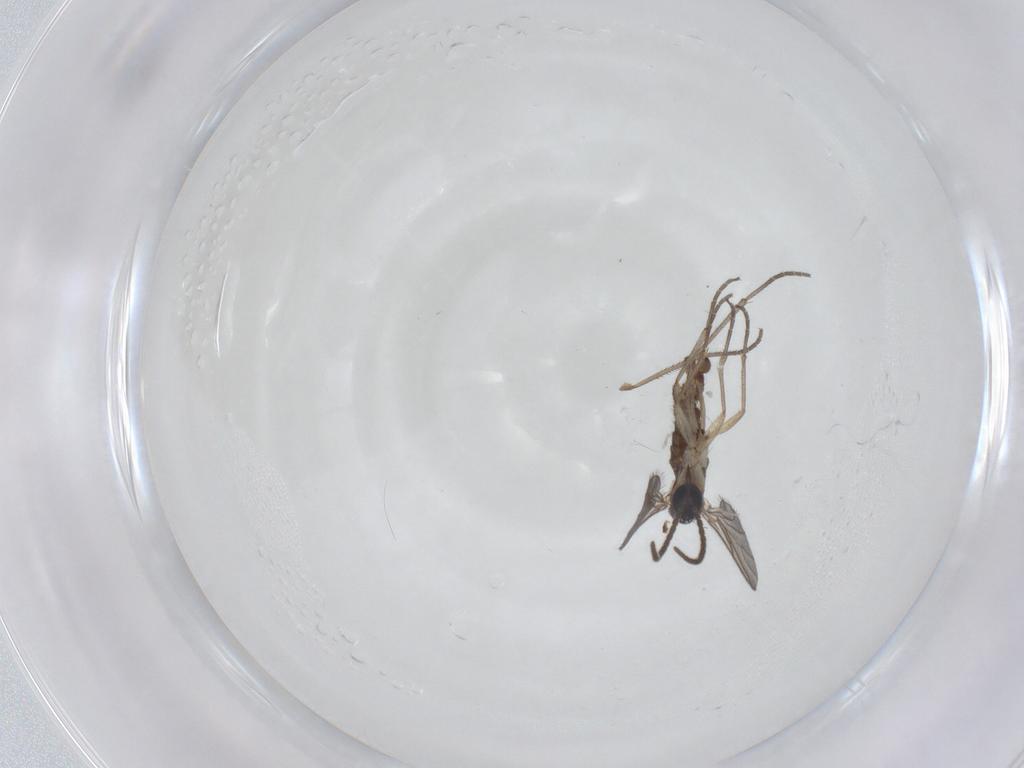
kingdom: Animalia
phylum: Arthropoda
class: Insecta
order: Diptera
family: Sciaridae
